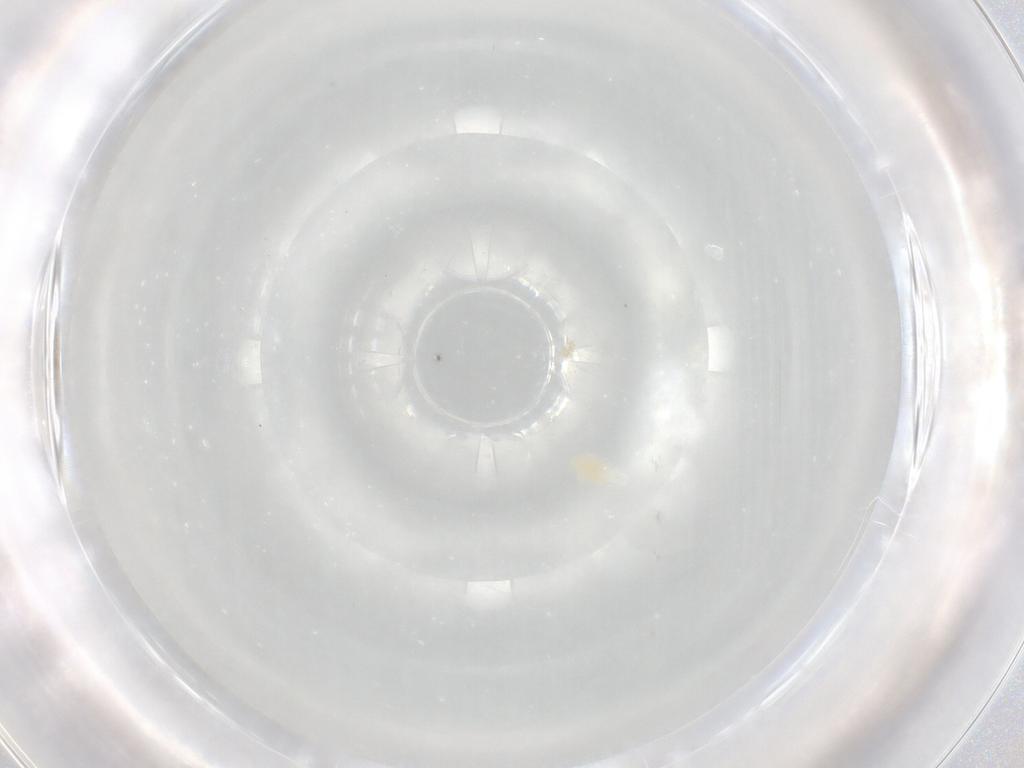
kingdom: Animalia
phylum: Arthropoda
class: Arachnida
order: Trombidiformes
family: Eupodidae
